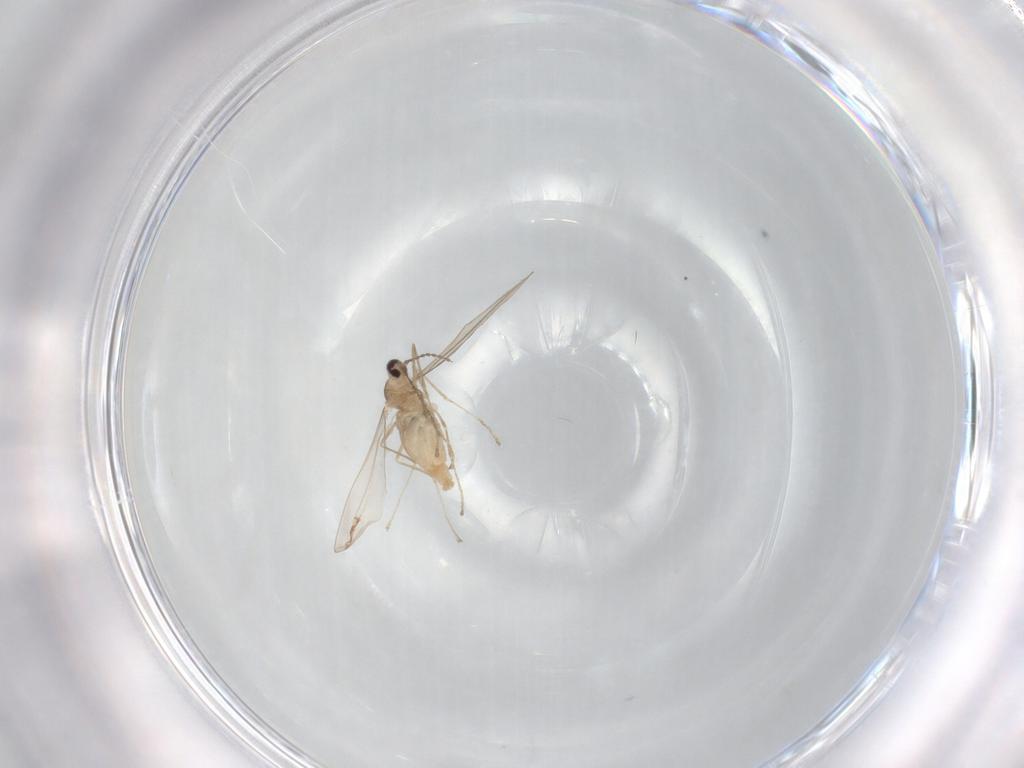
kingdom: Animalia
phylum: Arthropoda
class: Insecta
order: Diptera
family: Cecidomyiidae
